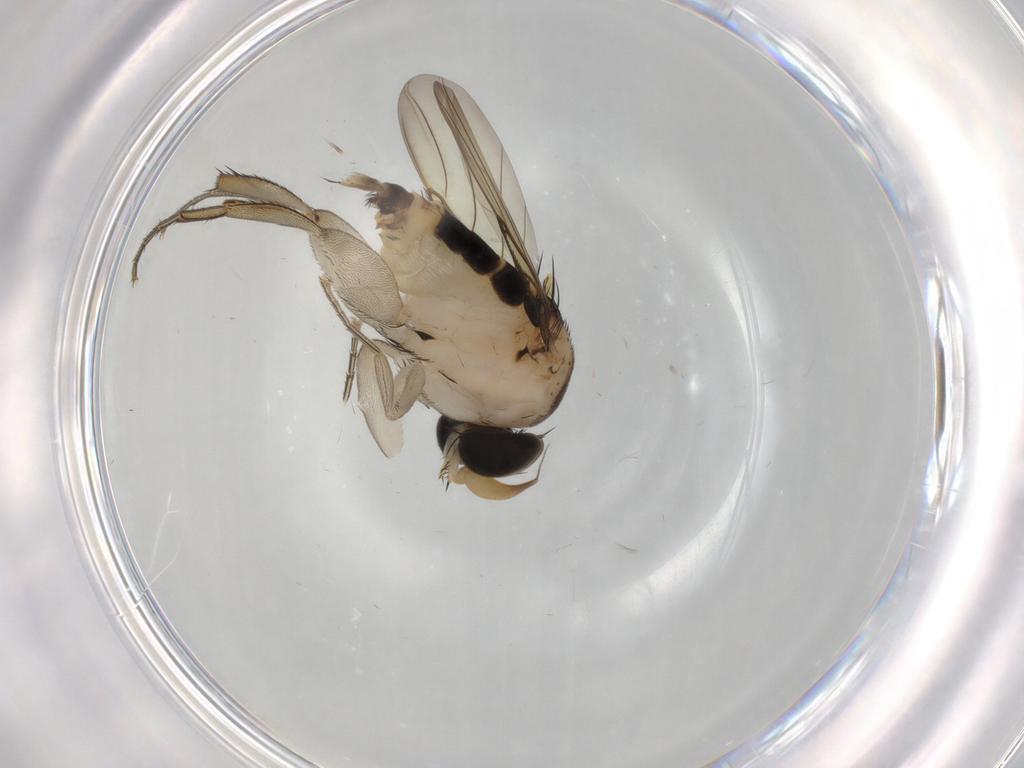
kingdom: Animalia
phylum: Arthropoda
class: Insecta
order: Diptera
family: Phoridae
